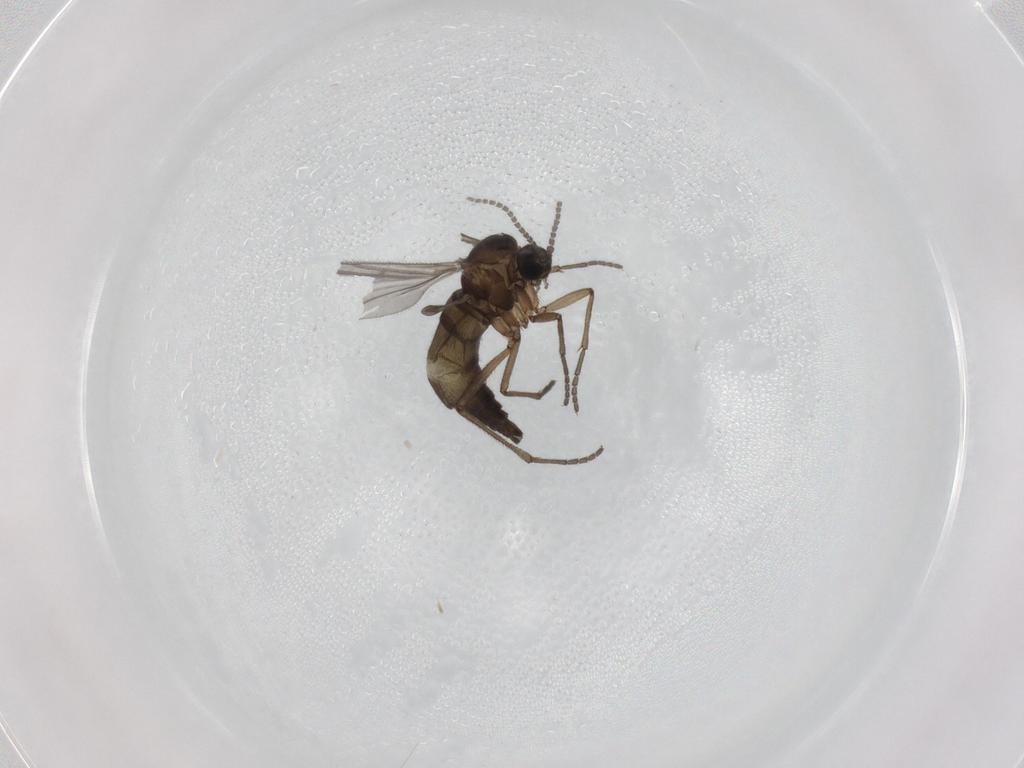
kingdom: Animalia
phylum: Arthropoda
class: Insecta
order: Diptera
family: Sciaridae
